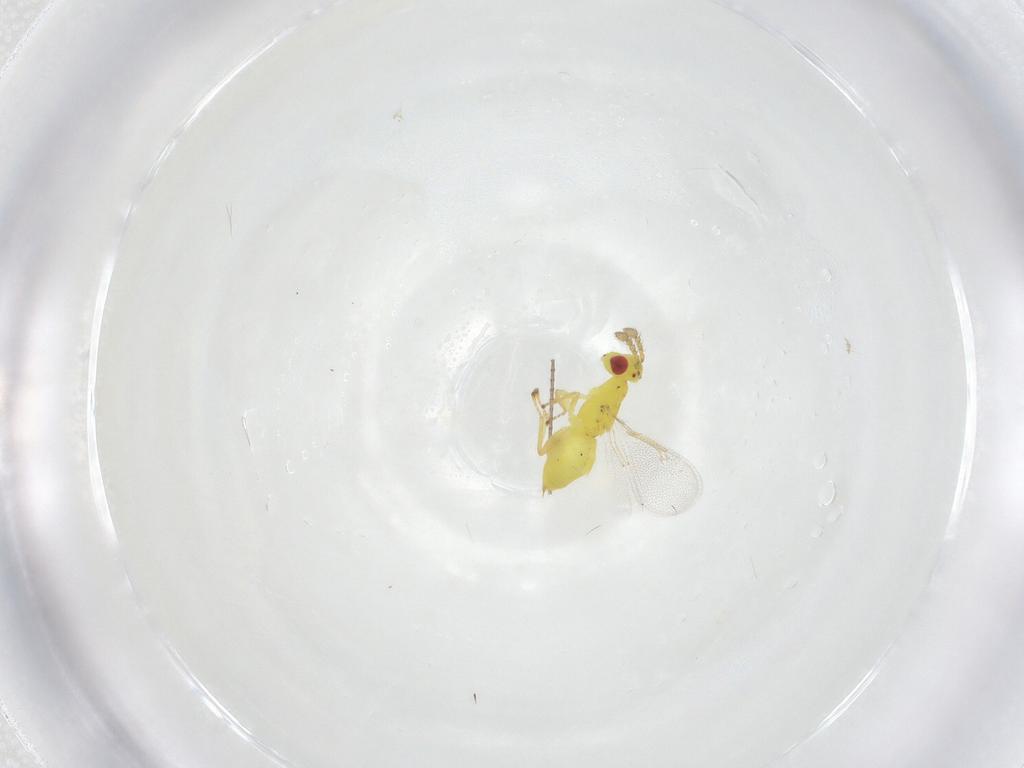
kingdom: Animalia
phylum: Arthropoda
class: Insecta
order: Hymenoptera
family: Eulophidae
